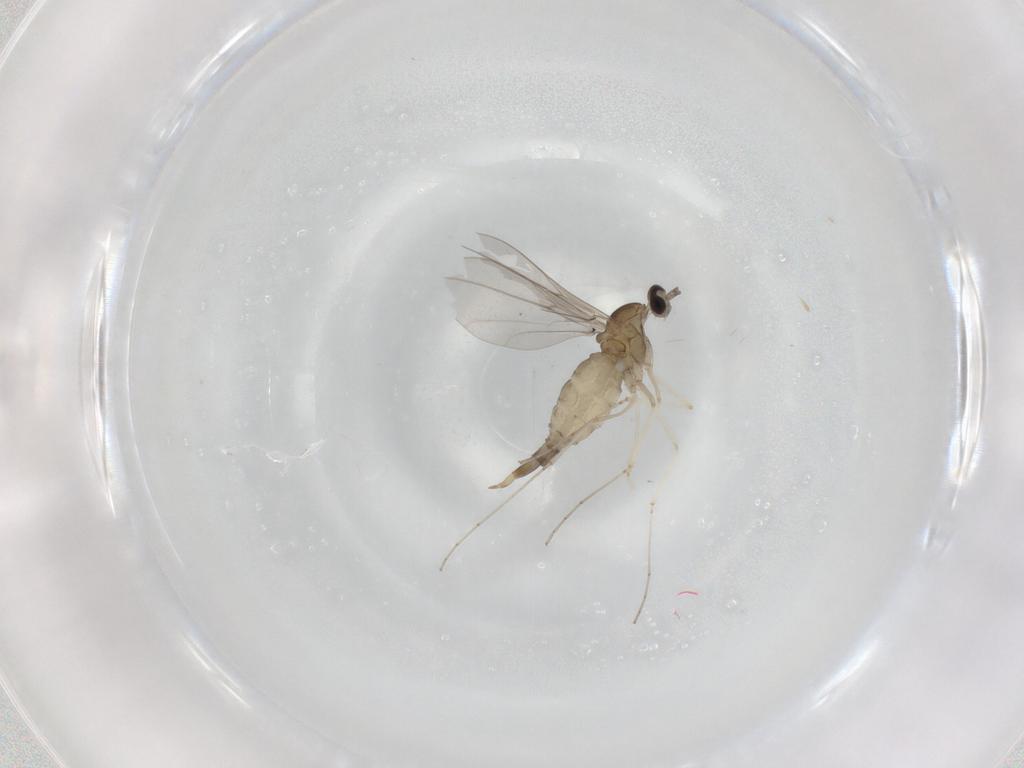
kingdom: Animalia
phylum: Arthropoda
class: Insecta
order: Diptera
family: Cecidomyiidae
